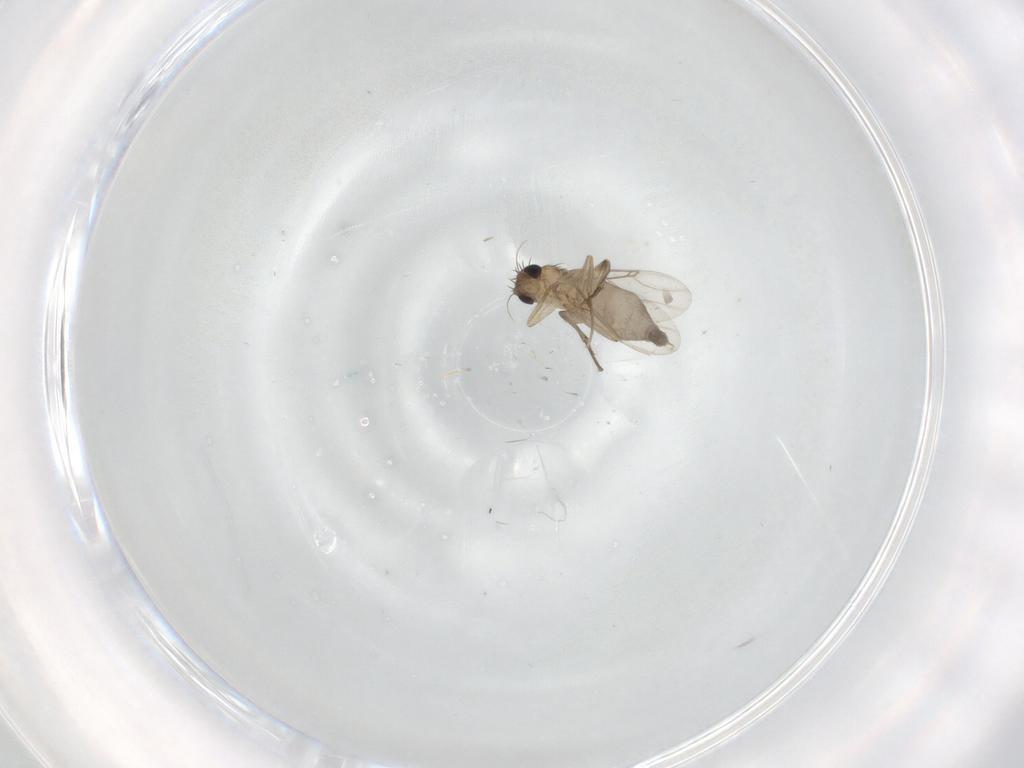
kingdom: Animalia
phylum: Arthropoda
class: Insecta
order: Diptera
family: Phoridae
